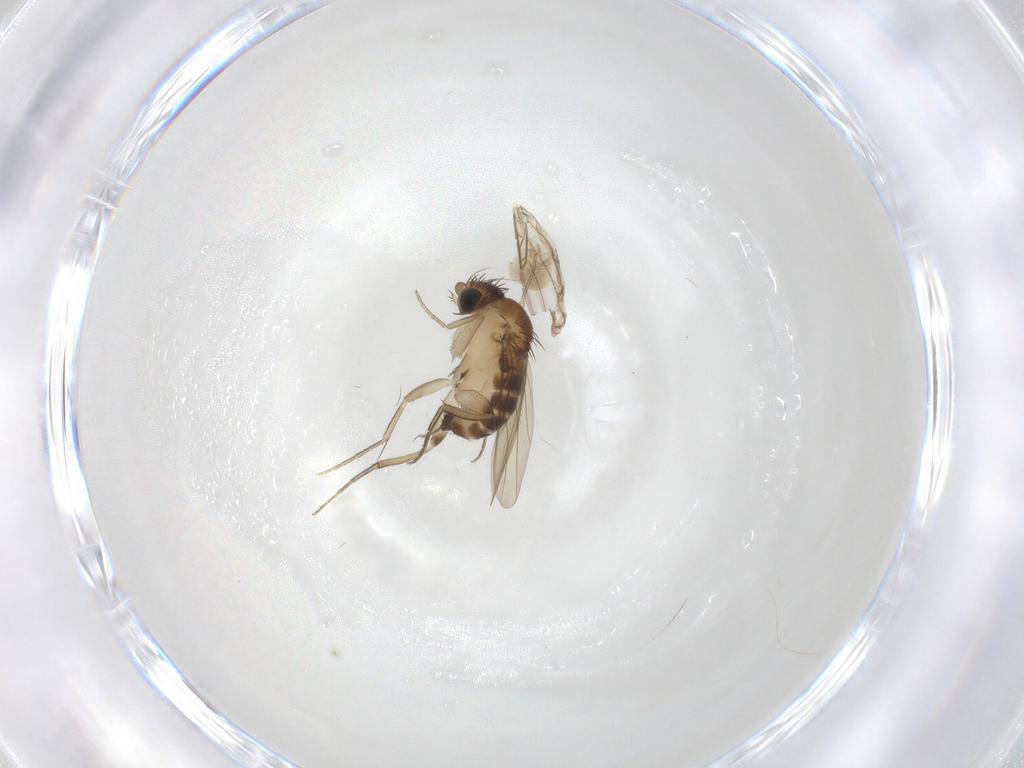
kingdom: Animalia
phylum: Arthropoda
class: Insecta
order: Diptera
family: Phoridae
